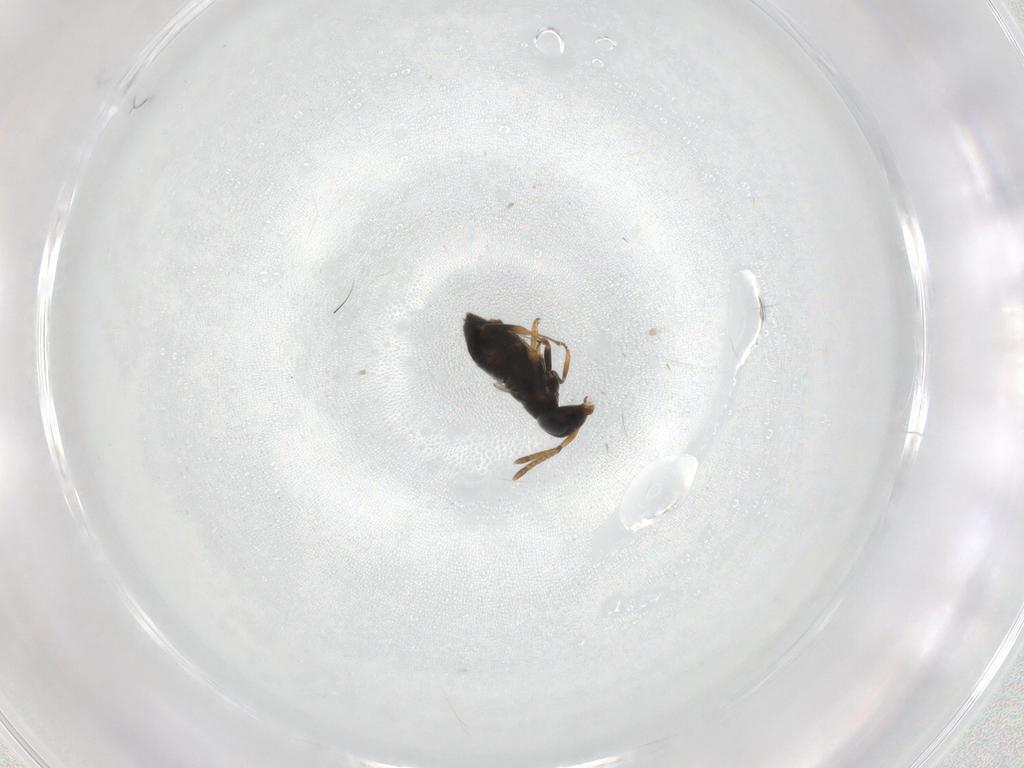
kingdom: Animalia
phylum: Arthropoda
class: Insecta
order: Hymenoptera
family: Encyrtidae
